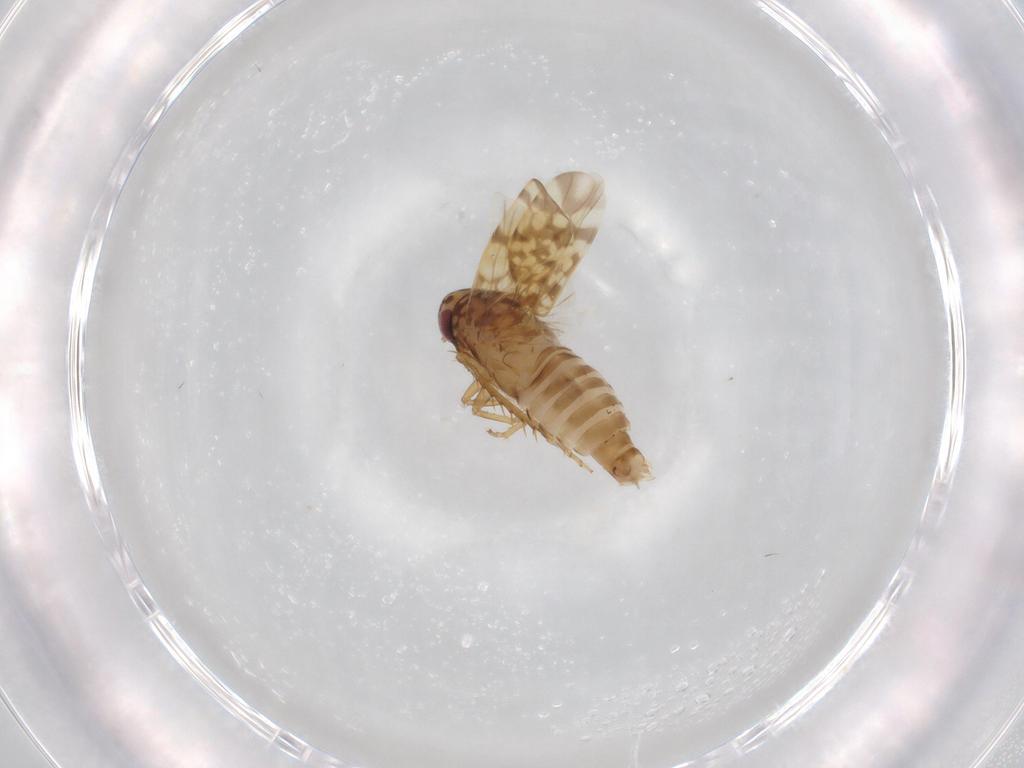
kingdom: Animalia
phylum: Arthropoda
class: Insecta
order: Hemiptera
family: Cicadellidae
